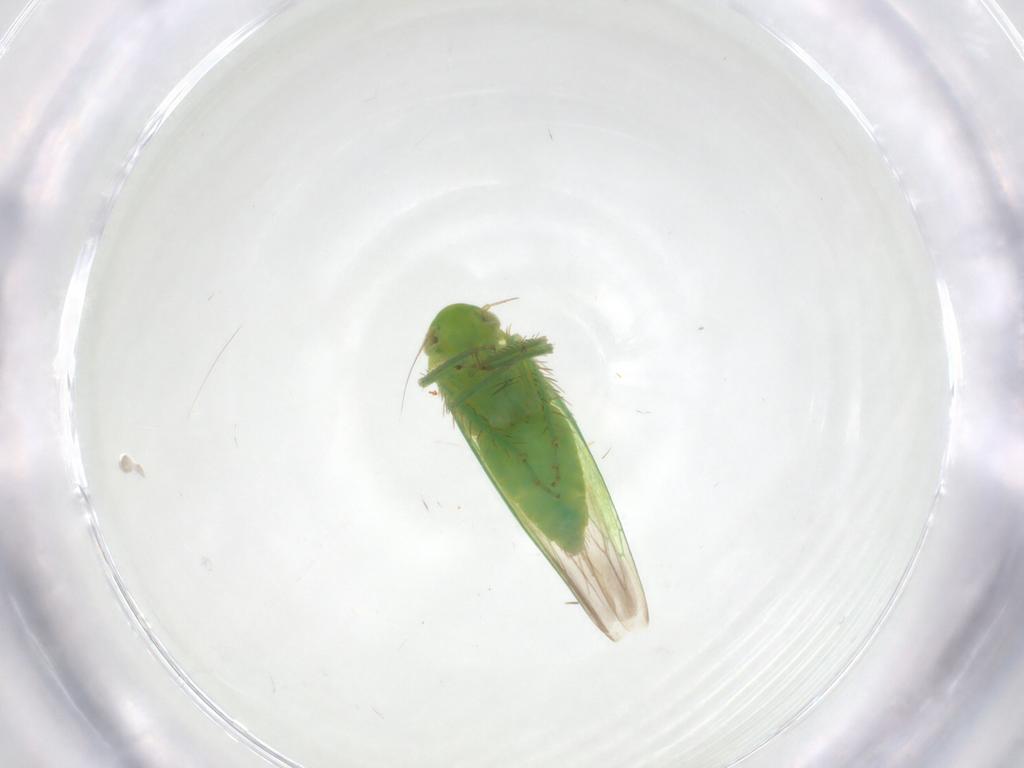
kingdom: Animalia
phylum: Arthropoda
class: Insecta
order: Hemiptera
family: Cicadellidae
